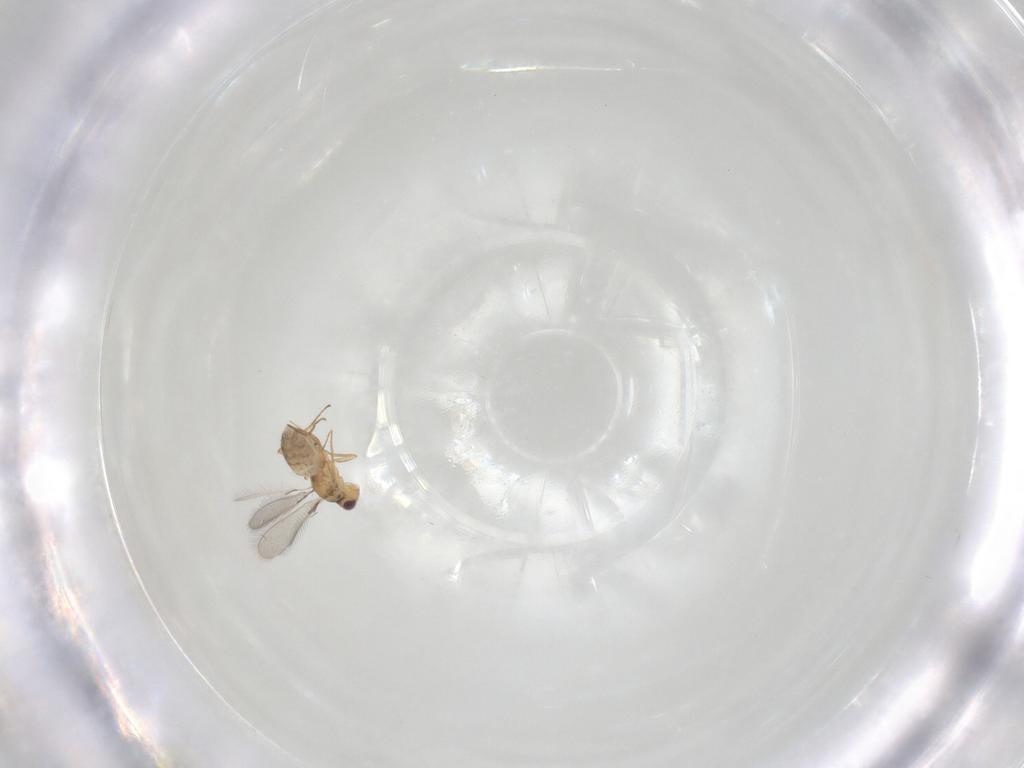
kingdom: Animalia
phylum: Arthropoda
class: Insecta
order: Hymenoptera
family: Mymaridae
